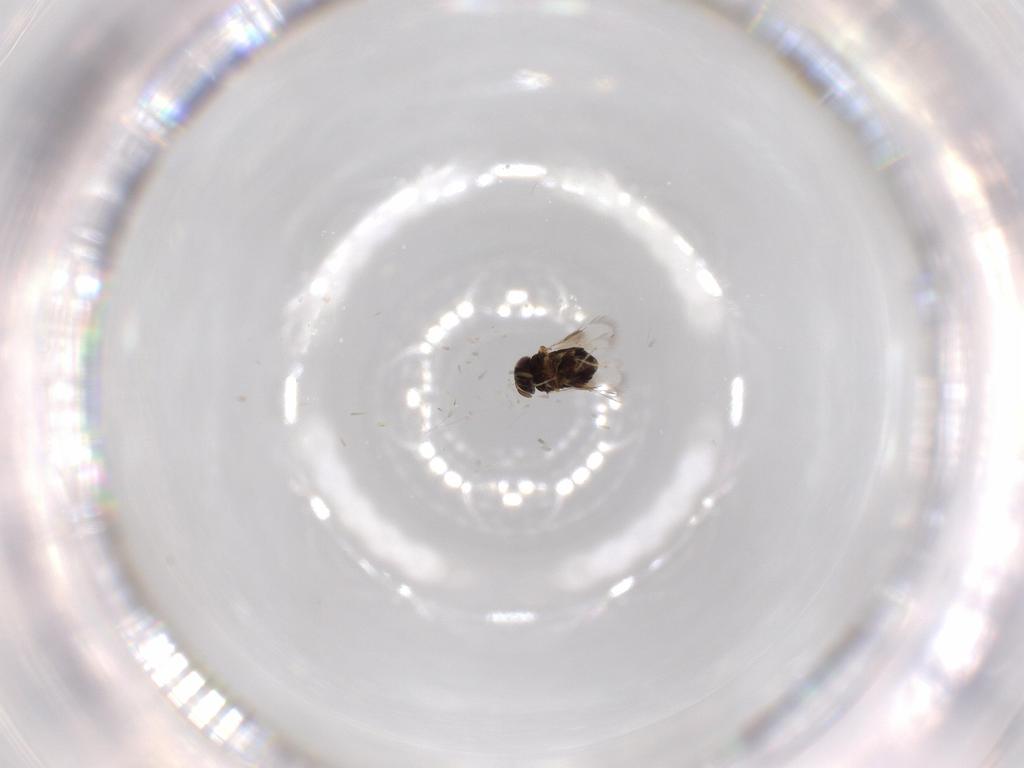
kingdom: Animalia
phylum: Arthropoda
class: Insecta
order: Hymenoptera
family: Signiphoridae
